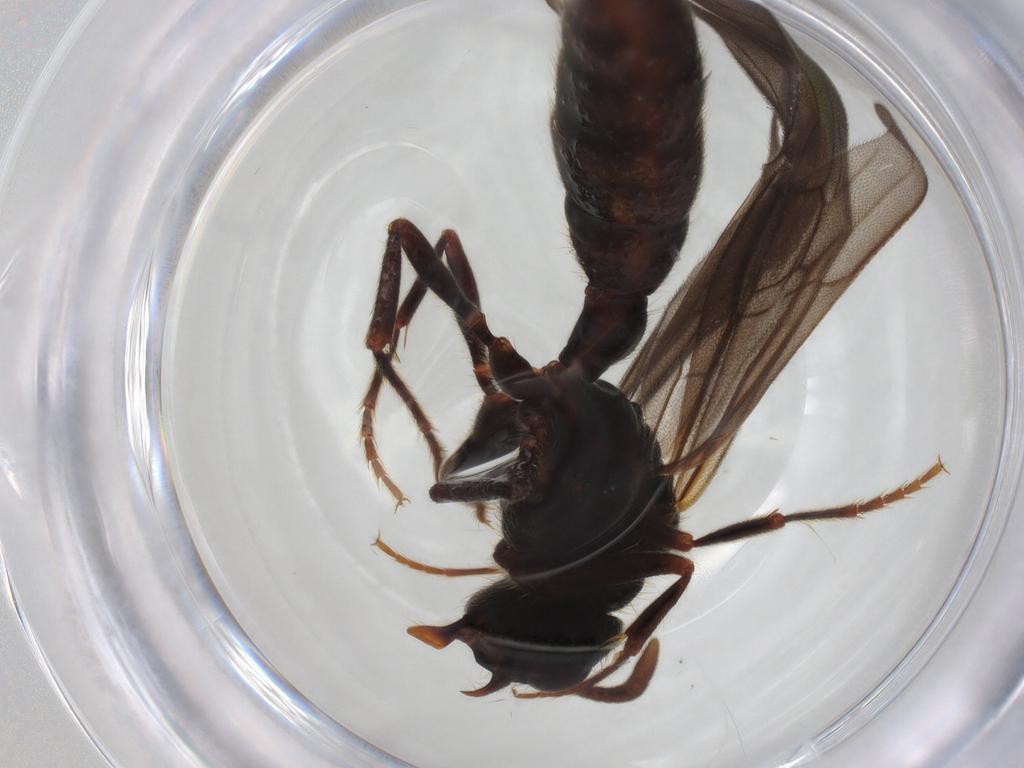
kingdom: Animalia
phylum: Arthropoda
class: Insecta
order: Hymenoptera
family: Formicidae
